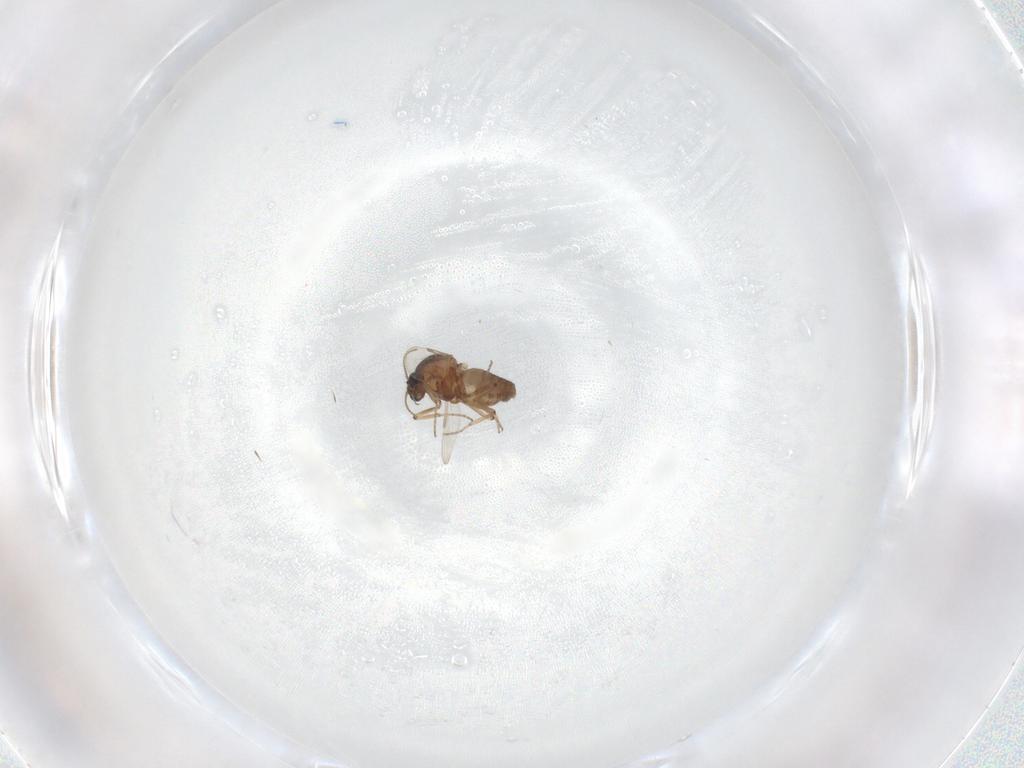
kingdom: Animalia
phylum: Arthropoda
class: Insecta
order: Diptera
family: Ceratopogonidae
